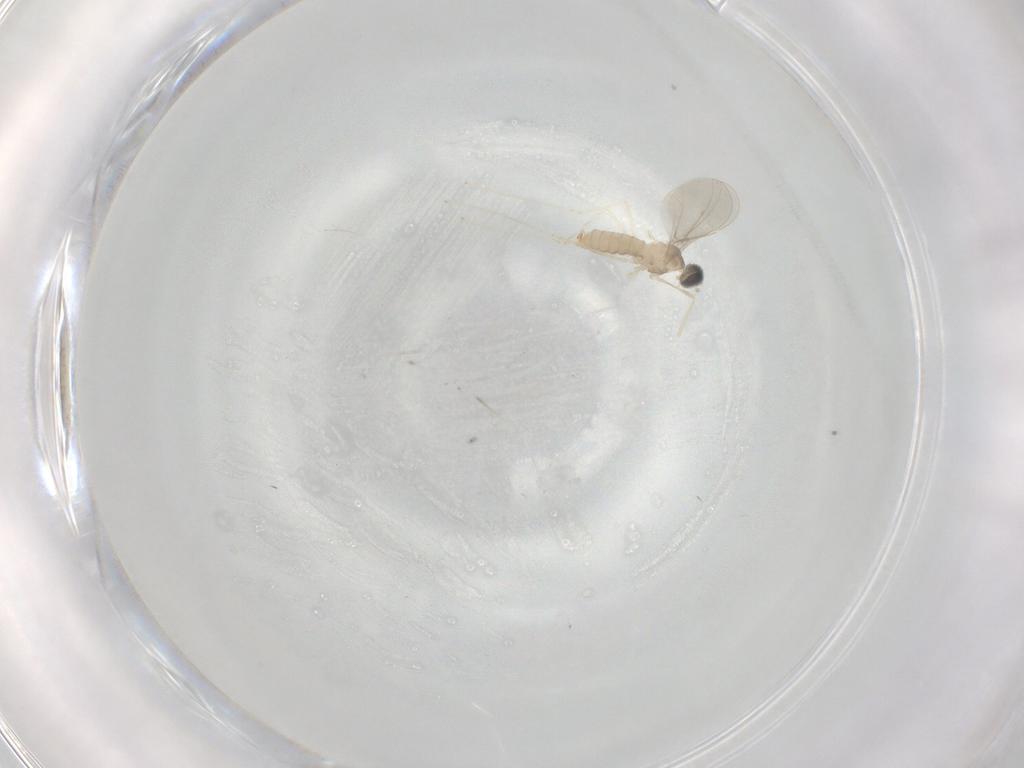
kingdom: Animalia
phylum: Arthropoda
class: Insecta
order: Diptera
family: Cecidomyiidae
